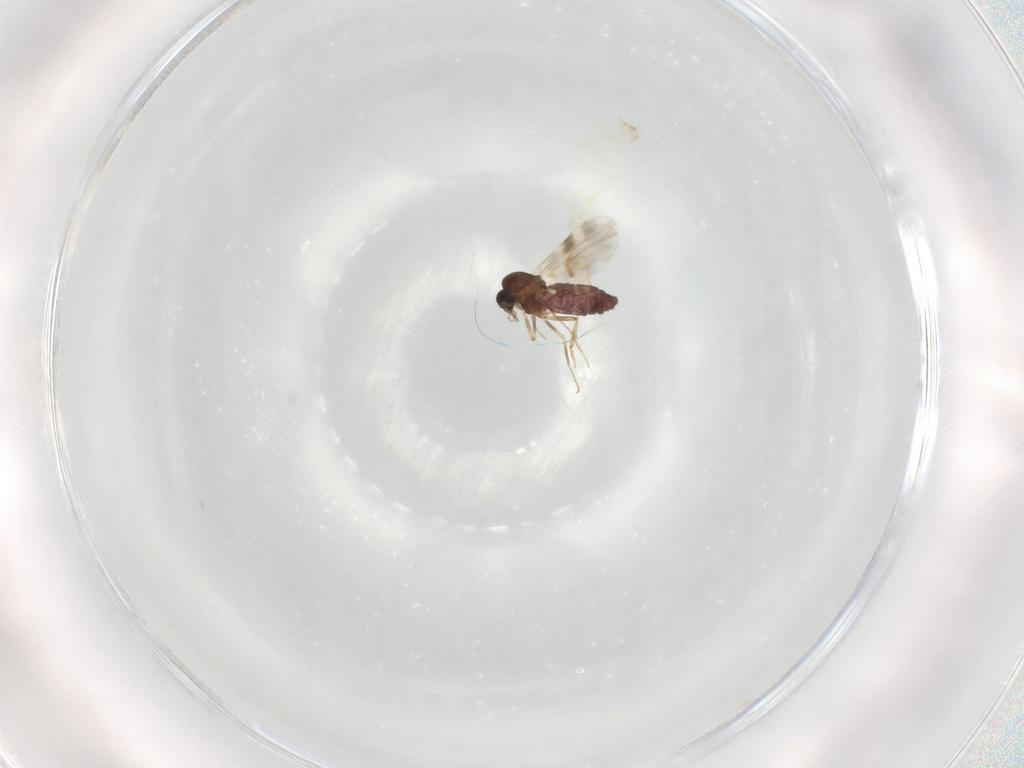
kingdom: Animalia
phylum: Arthropoda
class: Insecta
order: Diptera
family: Ceratopogonidae
